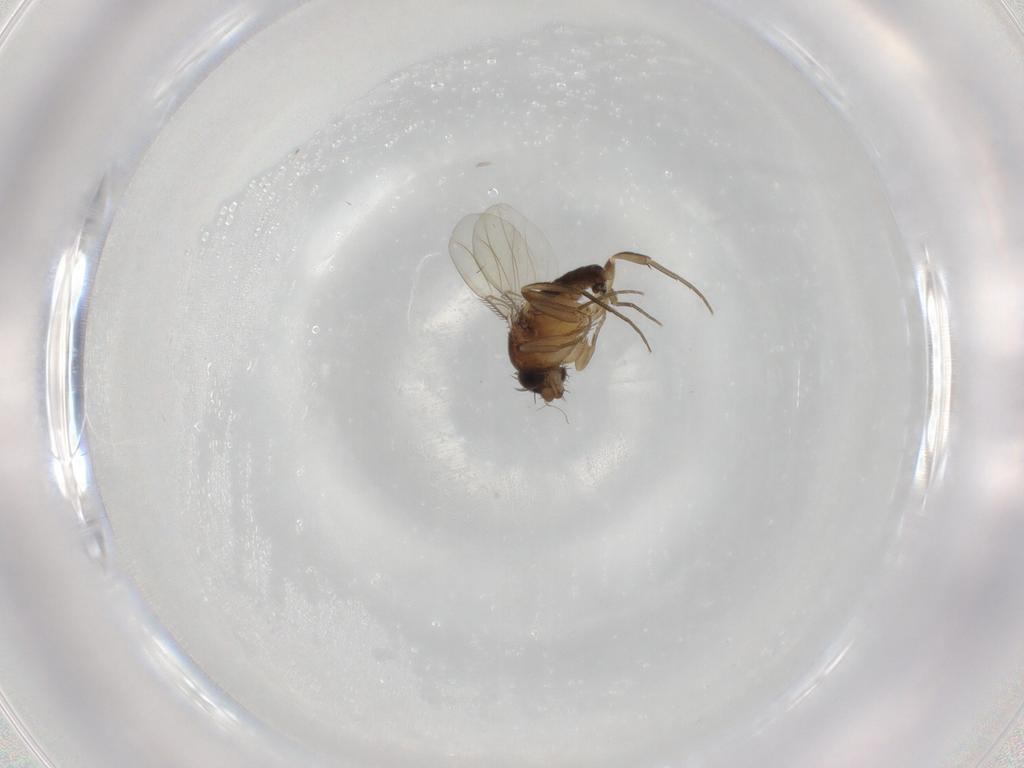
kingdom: Animalia
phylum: Arthropoda
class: Insecta
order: Diptera
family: Phoridae
